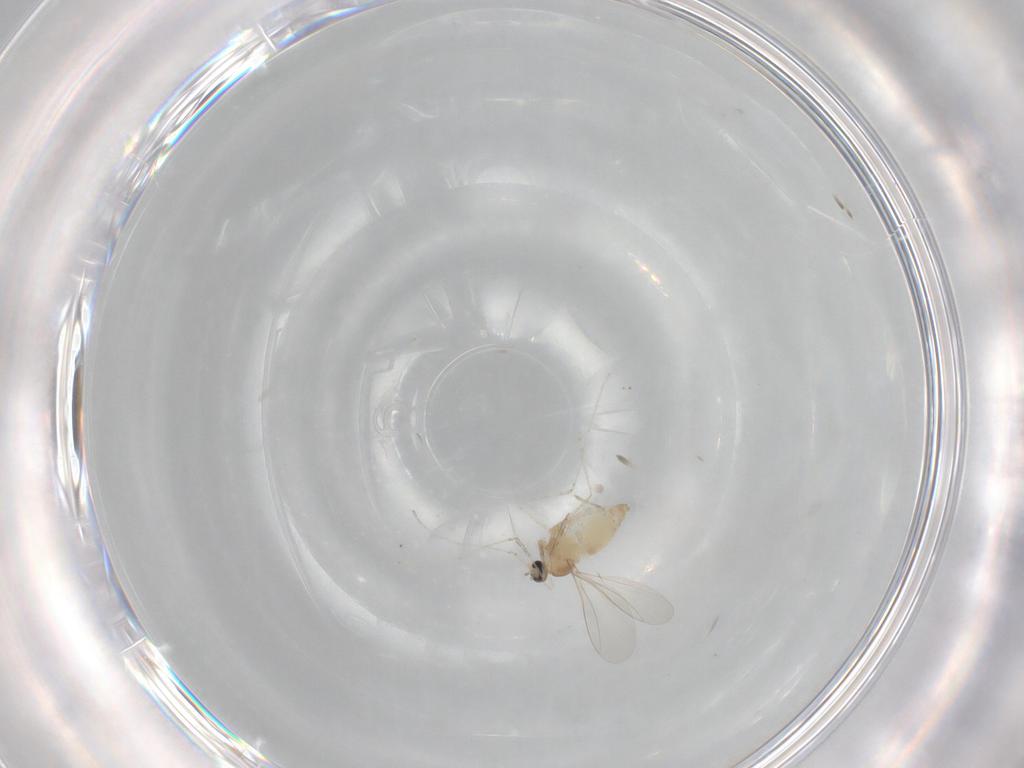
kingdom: Animalia
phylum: Arthropoda
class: Insecta
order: Diptera
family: Cecidomyiidae
